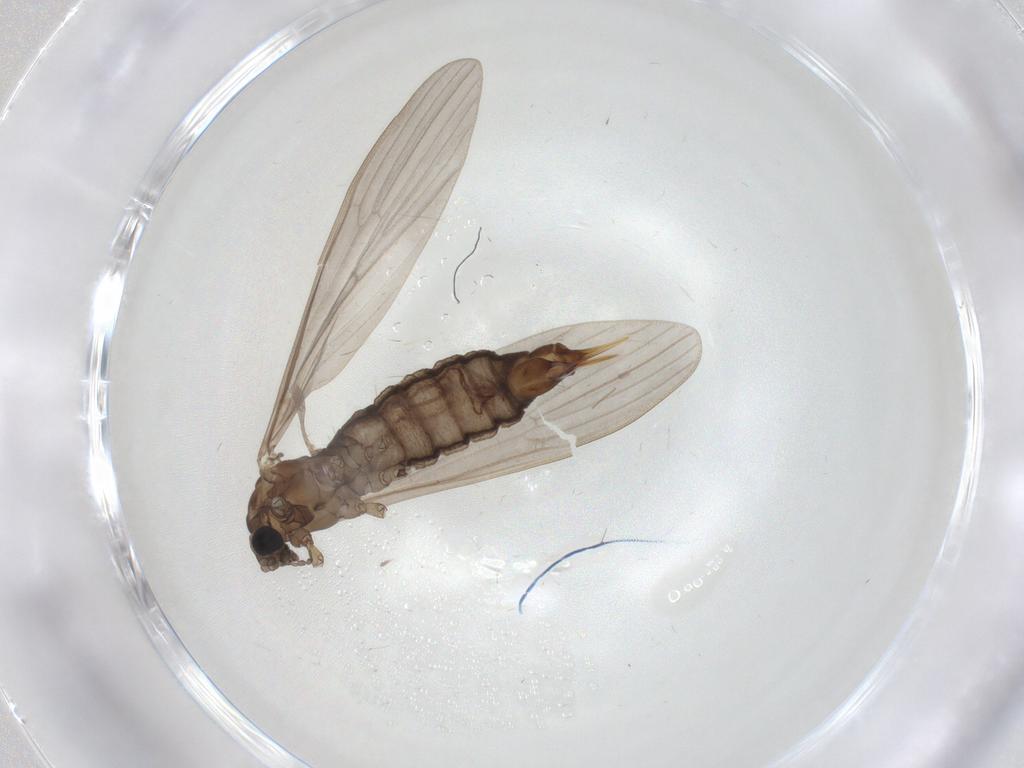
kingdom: Animalia
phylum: Arthropoda
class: Insecta
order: Diptera
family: Limoniidae
